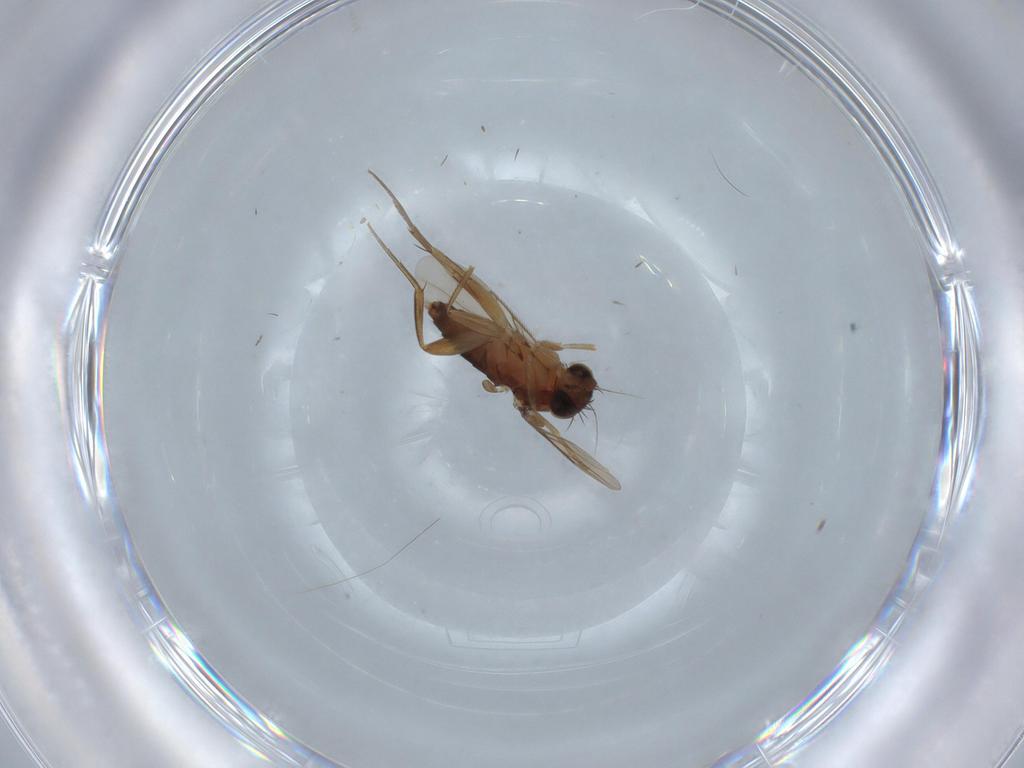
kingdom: Animalia
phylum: Arthropoda
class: Insecta
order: Diptera
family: Phoridae
